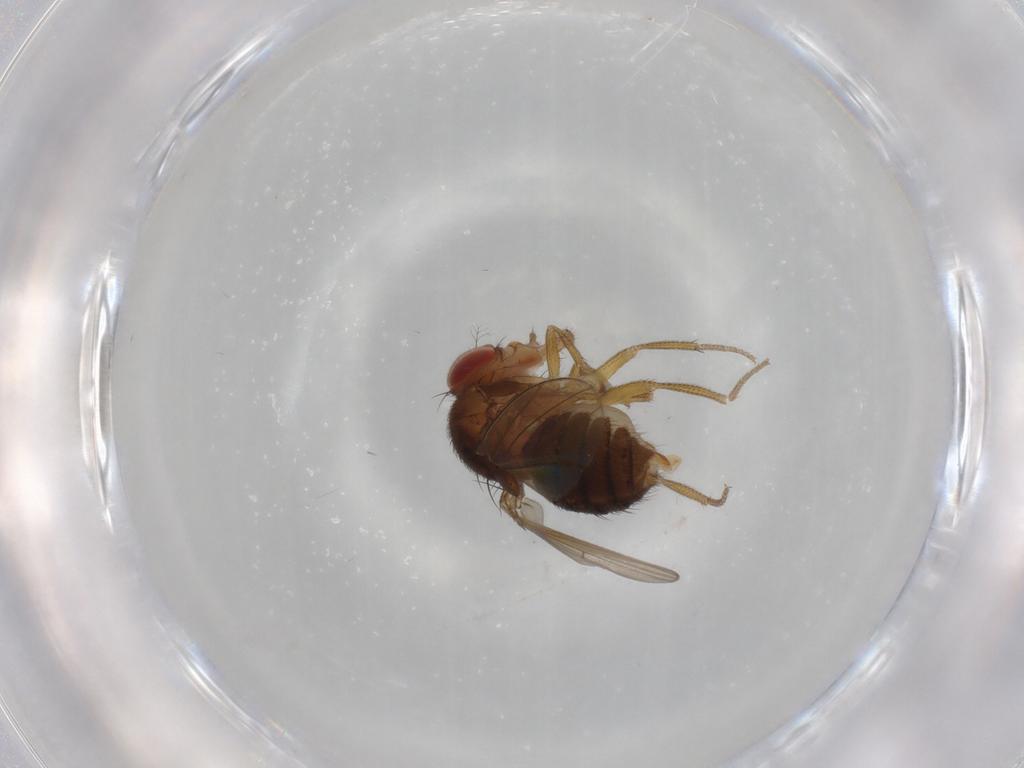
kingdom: Animalia
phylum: Arthropoda
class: Insecta
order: Diptera
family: Drosophilidae
